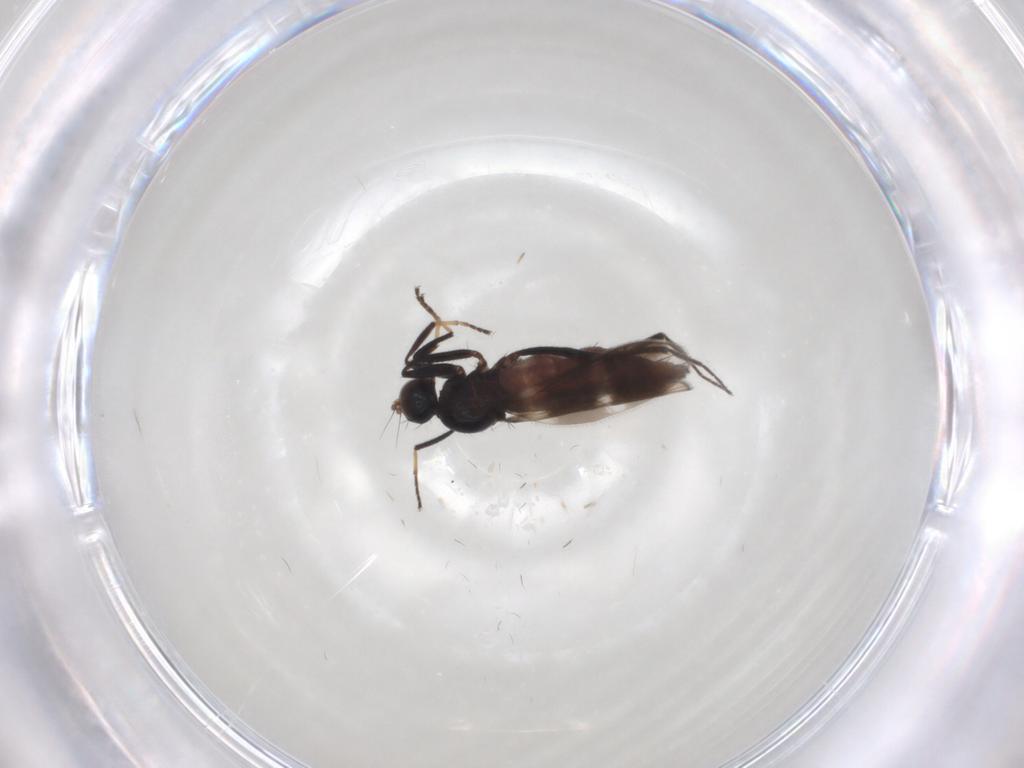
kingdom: Animalia
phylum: Arthropoda
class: Insecta
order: Diptera
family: Hybotidae
